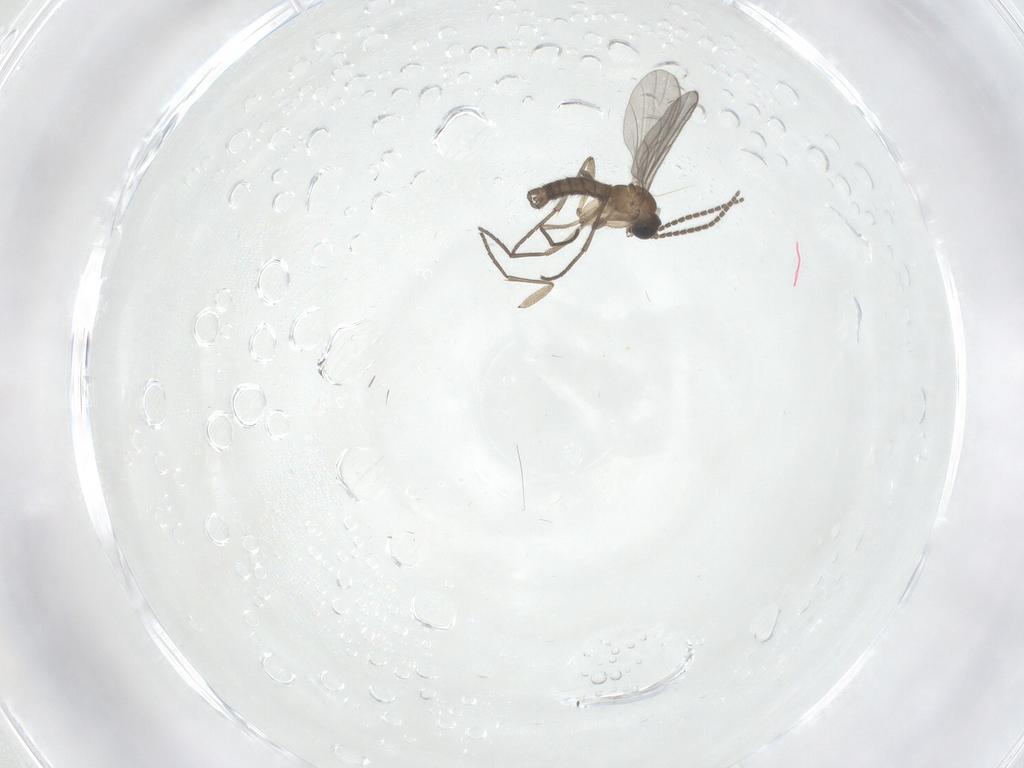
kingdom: Animalia
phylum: Arthropoda
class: Insecta
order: Diptera
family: Sciaridae
